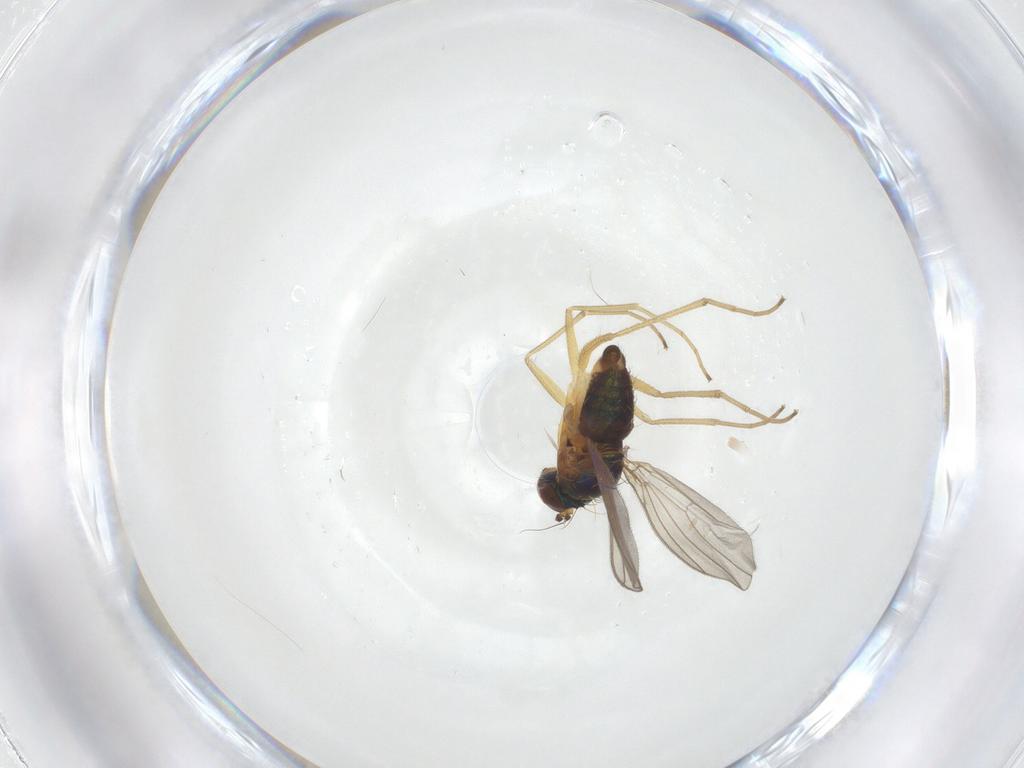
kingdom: Animalia
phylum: Arthropoda
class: Insecta
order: Diptera
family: Dolichopodidae
